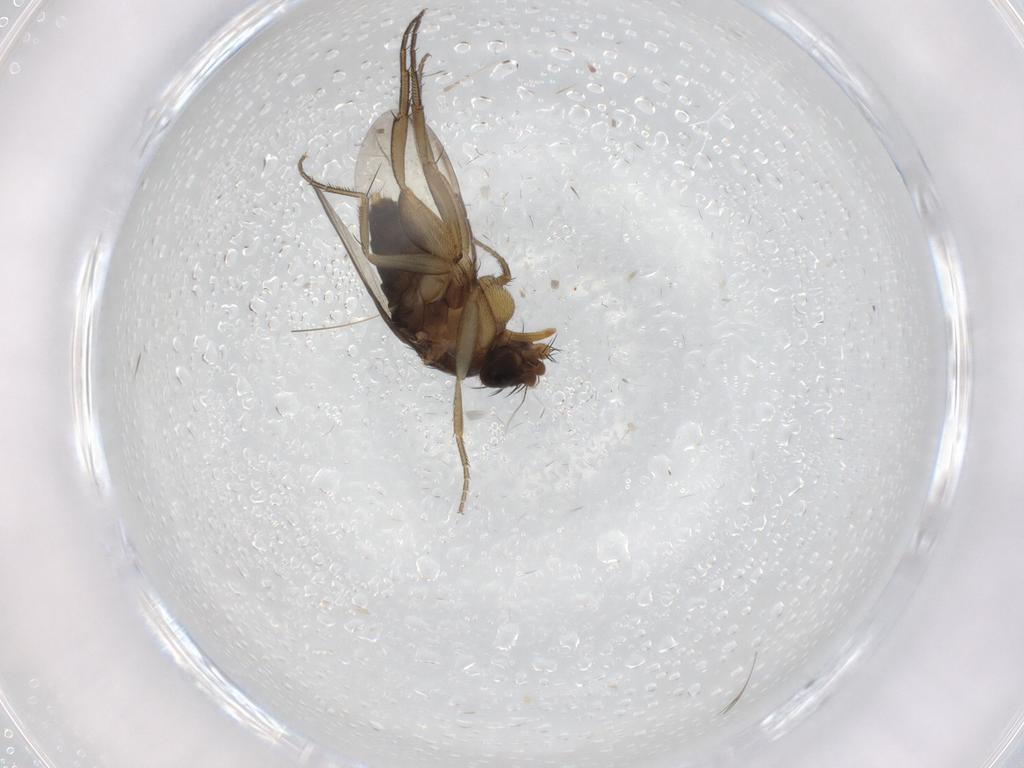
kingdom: Animalia
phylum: Arthropoda
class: Insecta
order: Diptera
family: Phoridae
